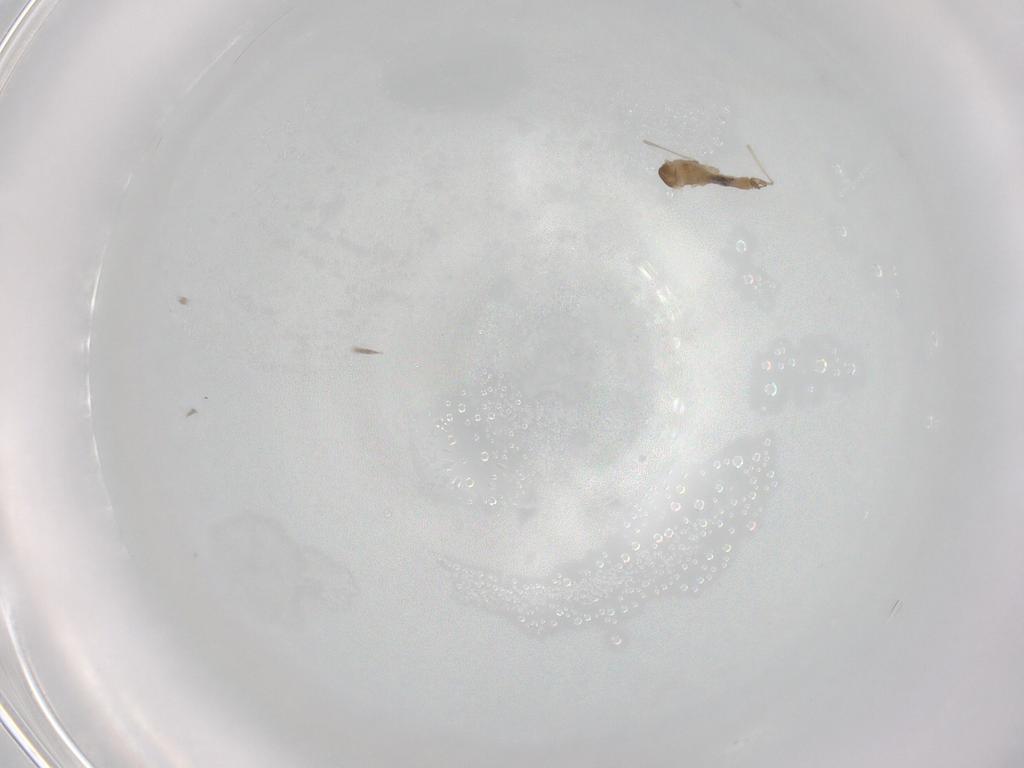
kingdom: Animalia
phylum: Arthropoda
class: Insecta
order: Diptera
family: Cecidomyiidae
